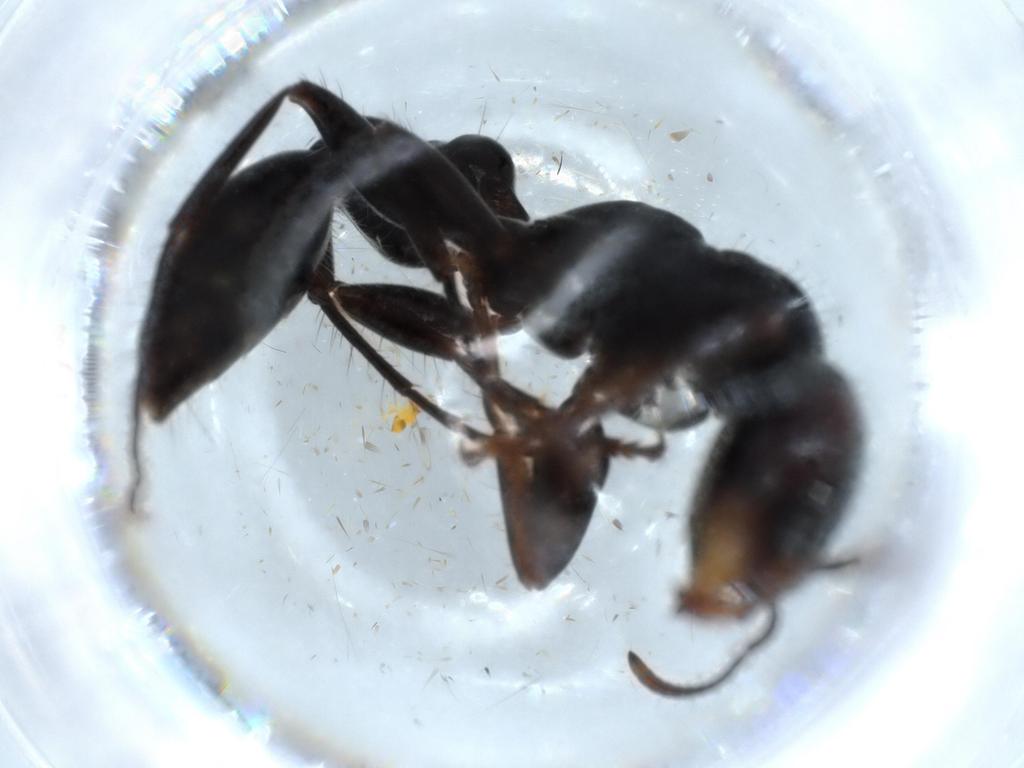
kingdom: Animalia
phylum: Arthropoda
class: Insecta
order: Hymenoptera
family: Formicidae
